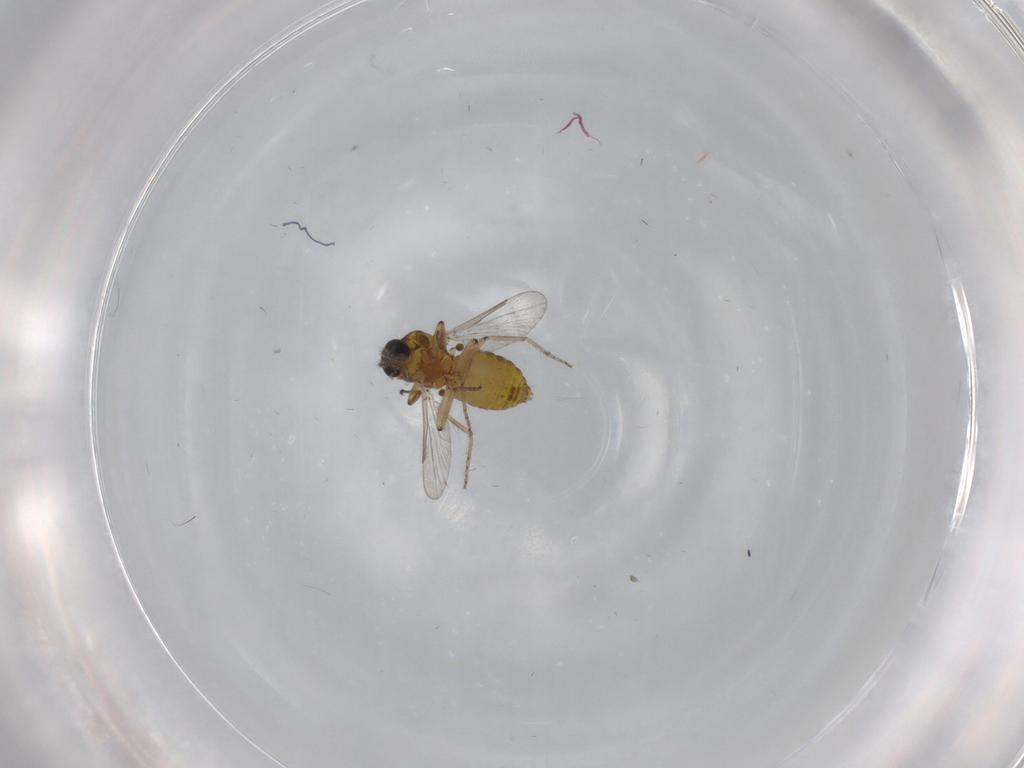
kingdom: Animalia
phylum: Arthropoda
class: Insecta
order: Diptera
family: Ceratopogonidae
